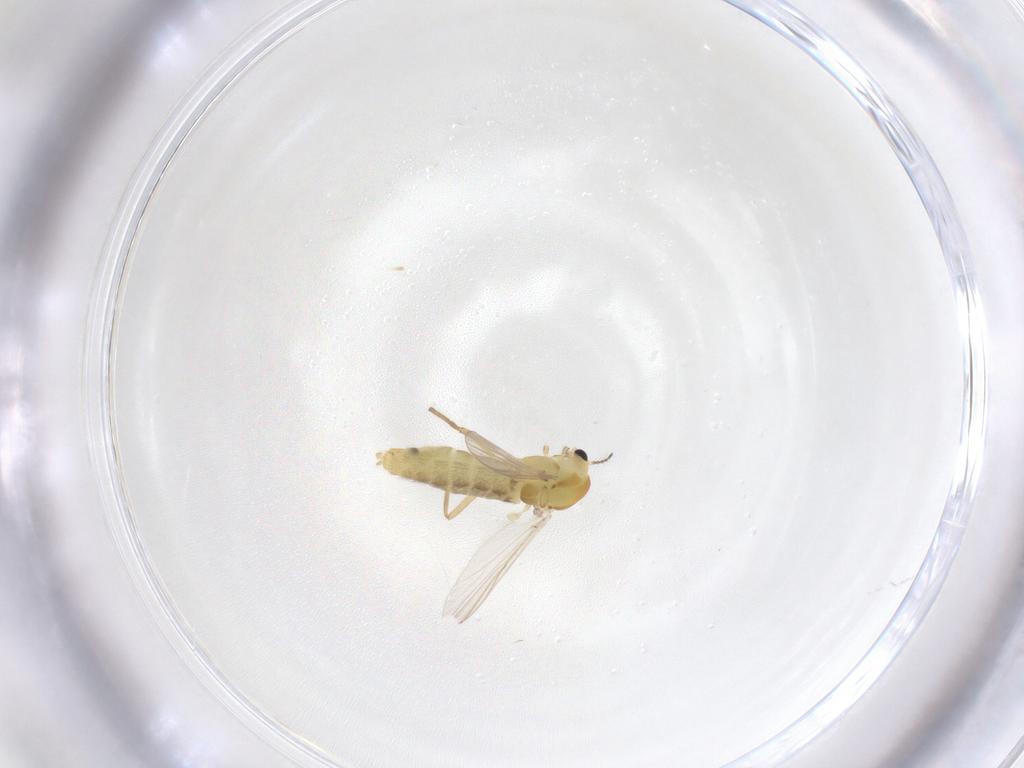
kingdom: Animalia
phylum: Arthropoda
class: Insecta
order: Diptera
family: Chironomidae
